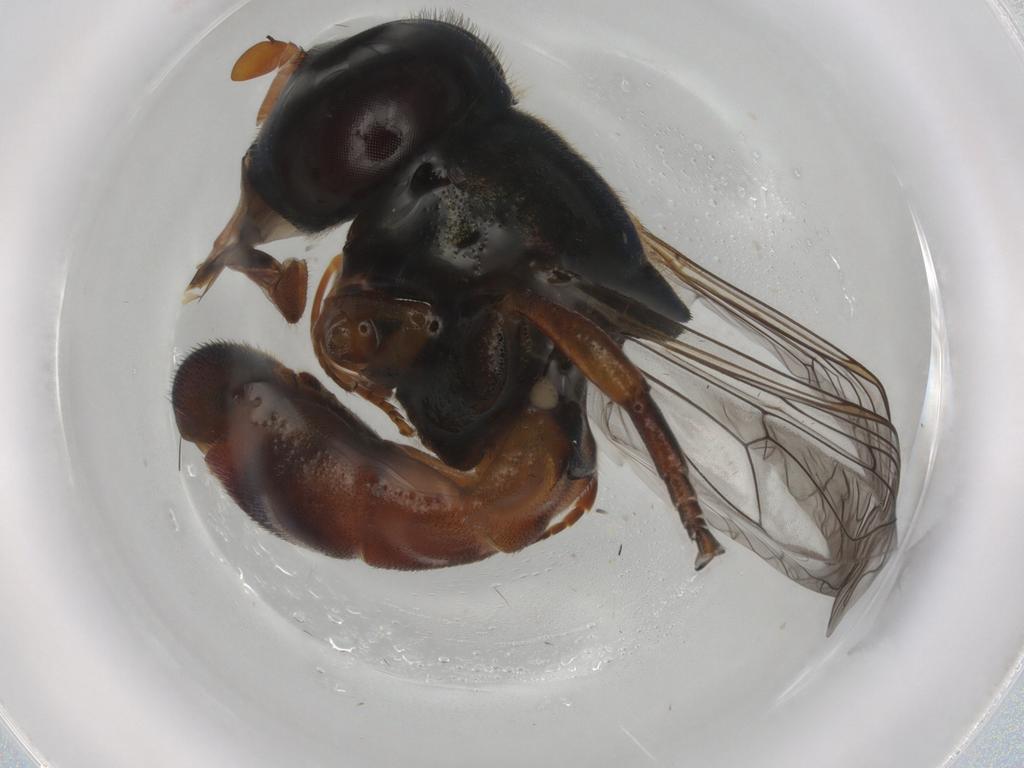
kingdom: Animalia
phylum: Arthropoda
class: Insecta
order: Diptera
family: Syrphidae
